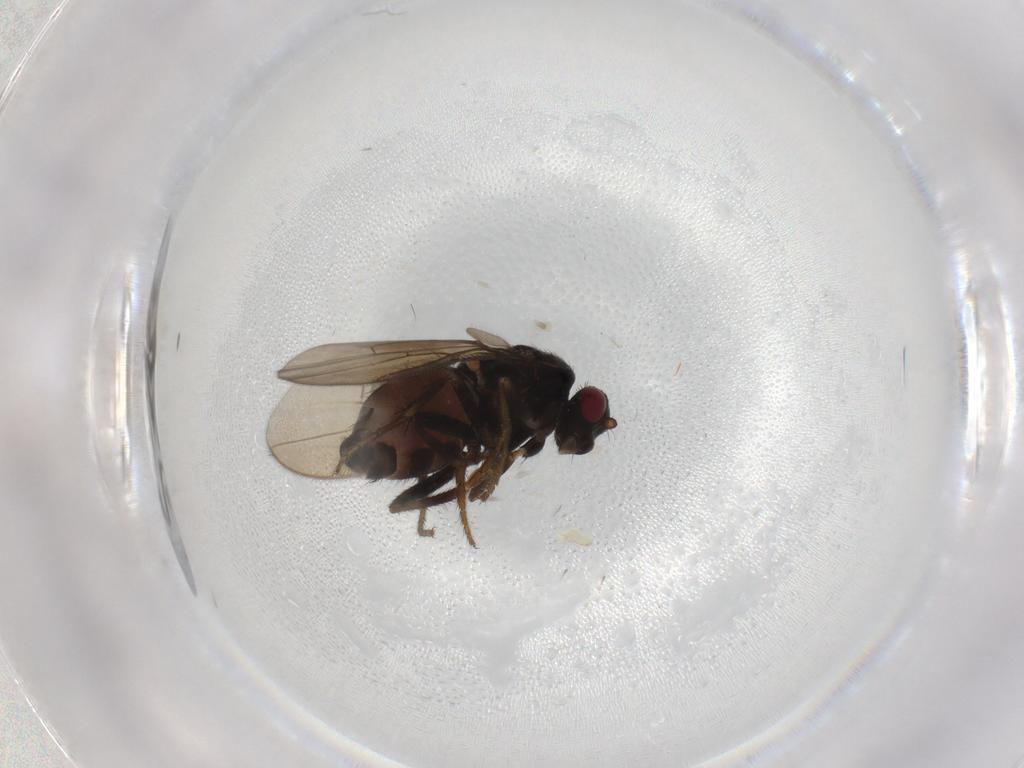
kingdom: Animalia
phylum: Arthropoda
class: Insecta
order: Diptera
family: Sphaeroceridae
